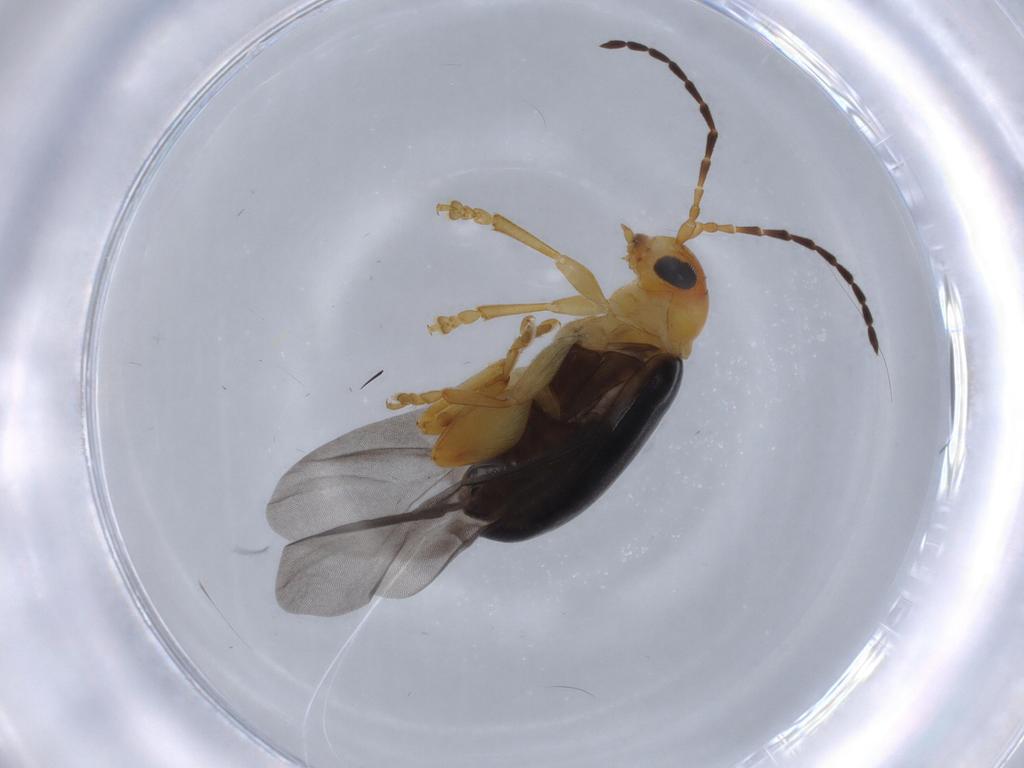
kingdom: Animalia
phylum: Arthropoda
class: Insecta
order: Coleoptera
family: Chrysomelidae
